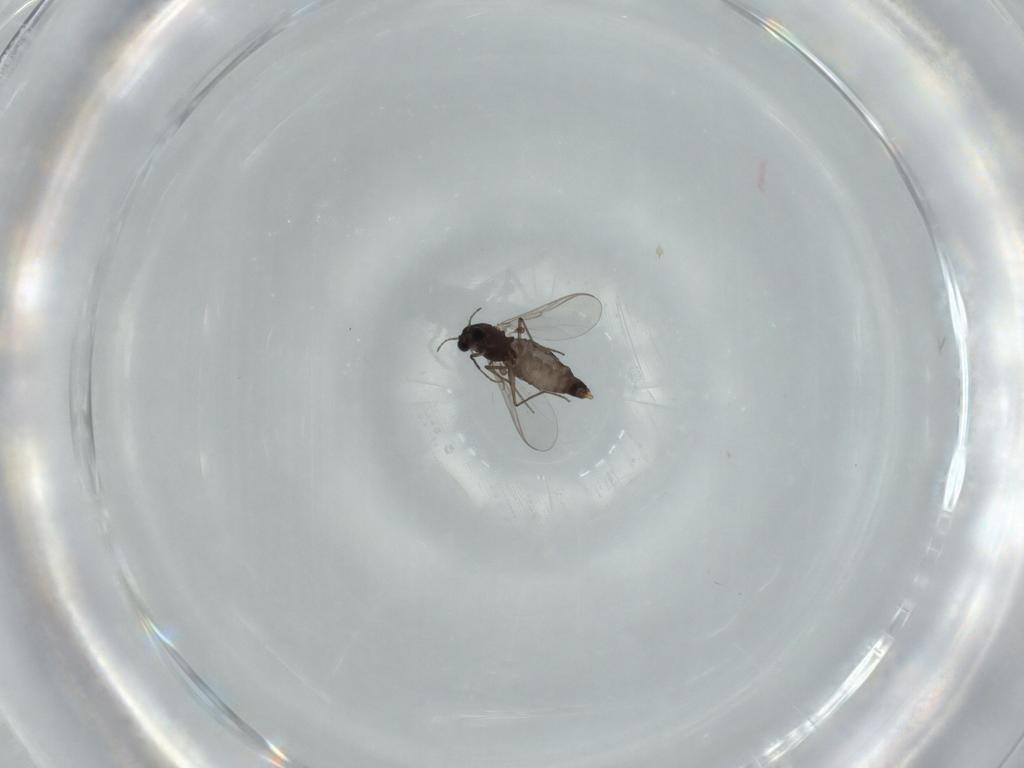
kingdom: Animalia
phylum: Arthropoda
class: Insecta
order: Diptera
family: Chironomidae
